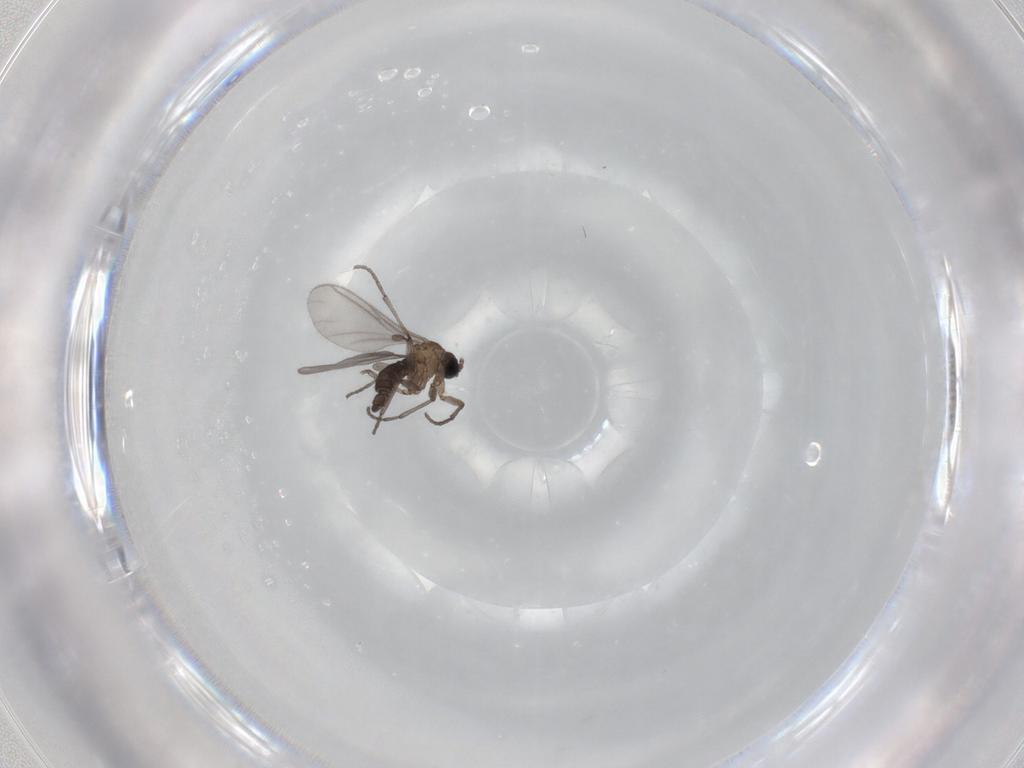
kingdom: Animalia
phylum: Arthropoda
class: Insecta
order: Diptera
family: Sciaridae
